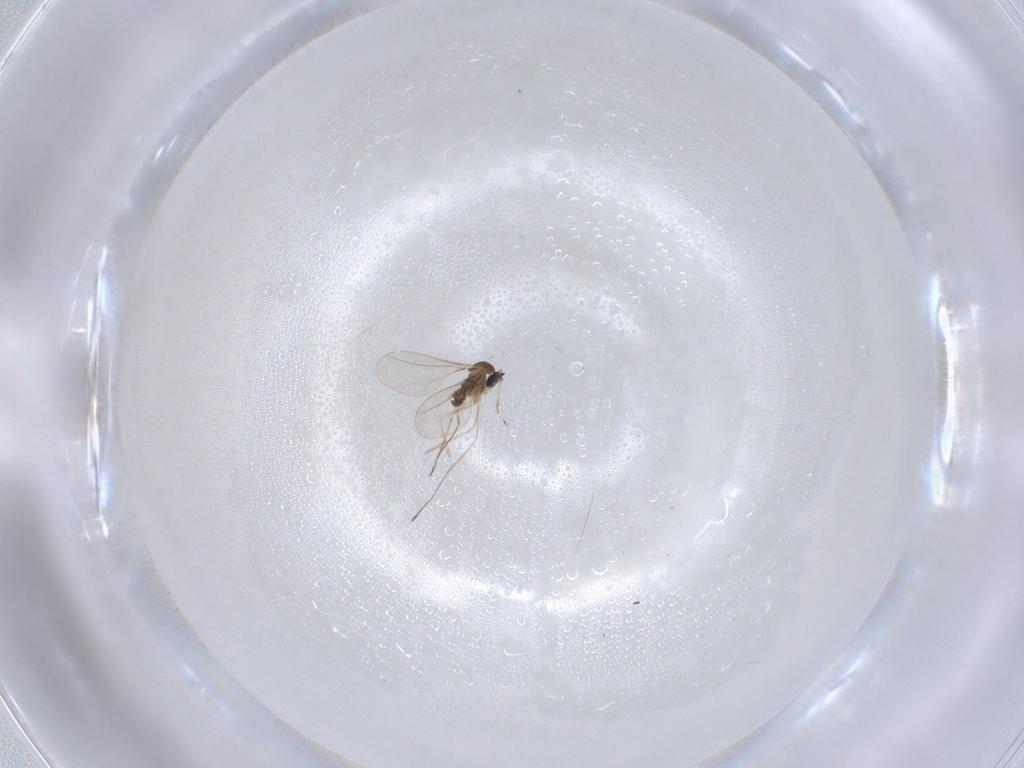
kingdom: Animalia
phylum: Arthropoda
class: Insecta
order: Diptera
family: Cecidomyiidae
